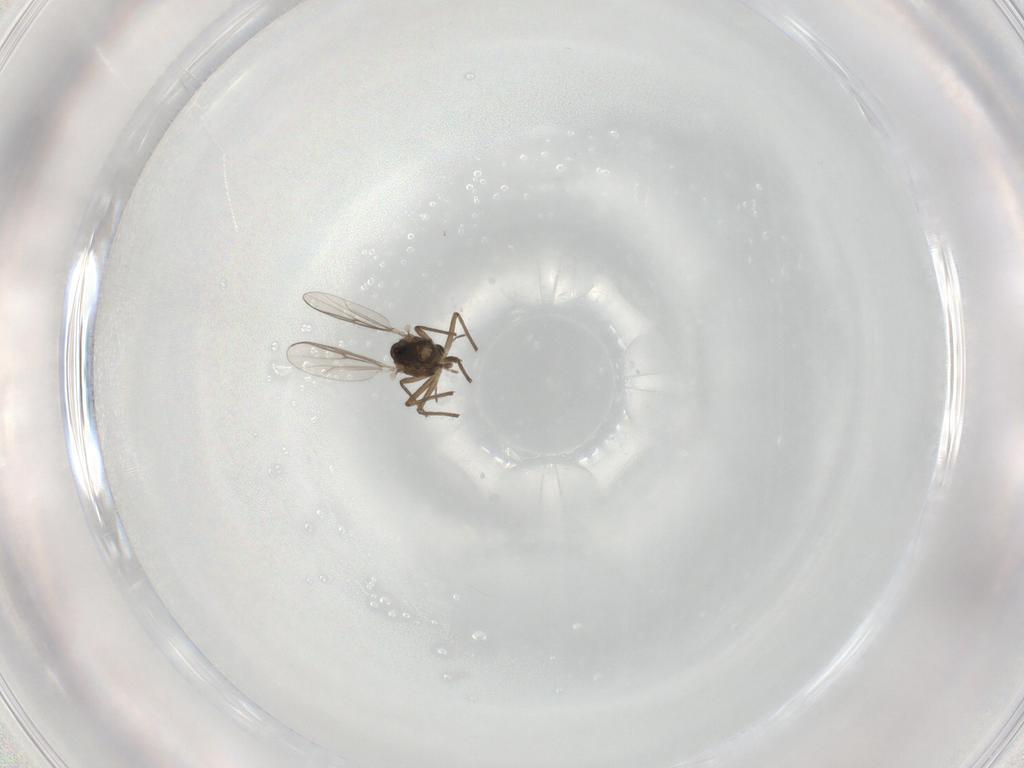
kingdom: Animalia
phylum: Arthropoda
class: Insecta
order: Diptera
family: Chironomidae
